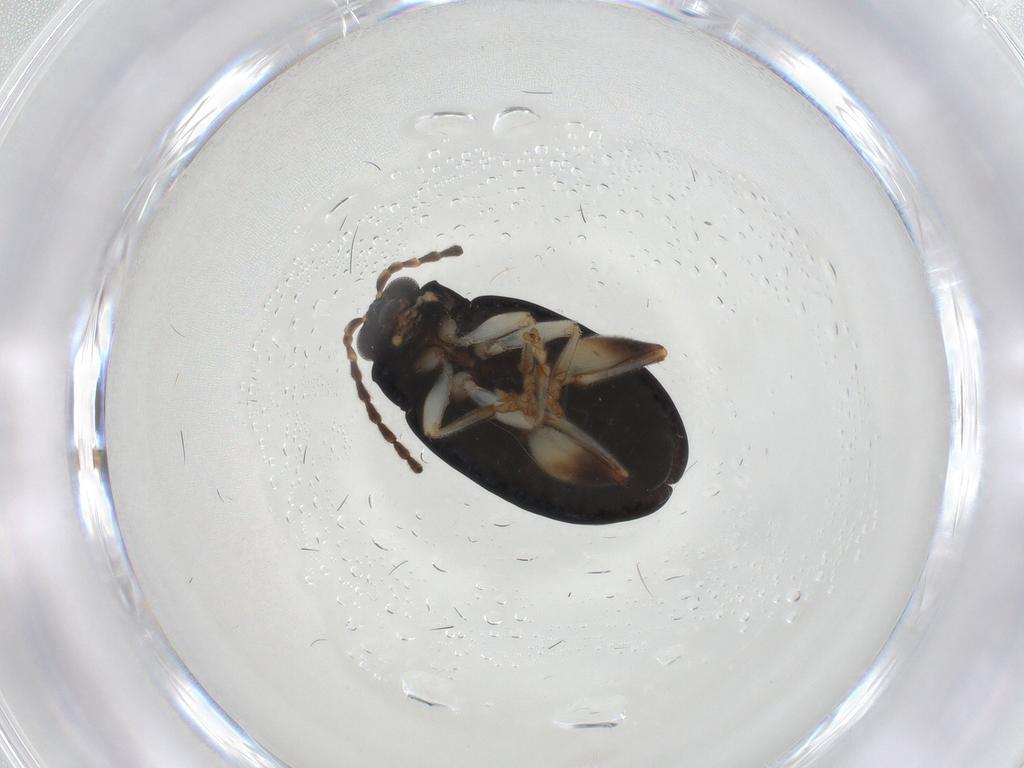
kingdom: Animalia
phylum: Arthropoda
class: Insecta
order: Coleoptera
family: Chrysomelidae
